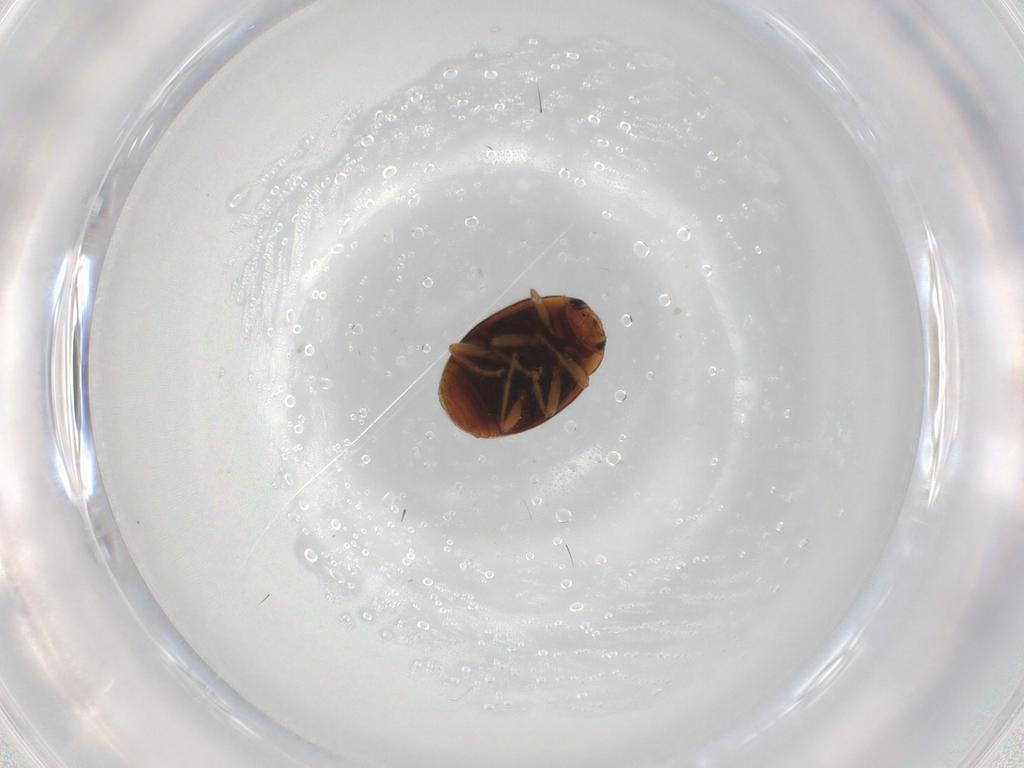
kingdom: Animalia
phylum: Arthropoda
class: Insecta
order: Coleoptera
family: Coccinellidae
